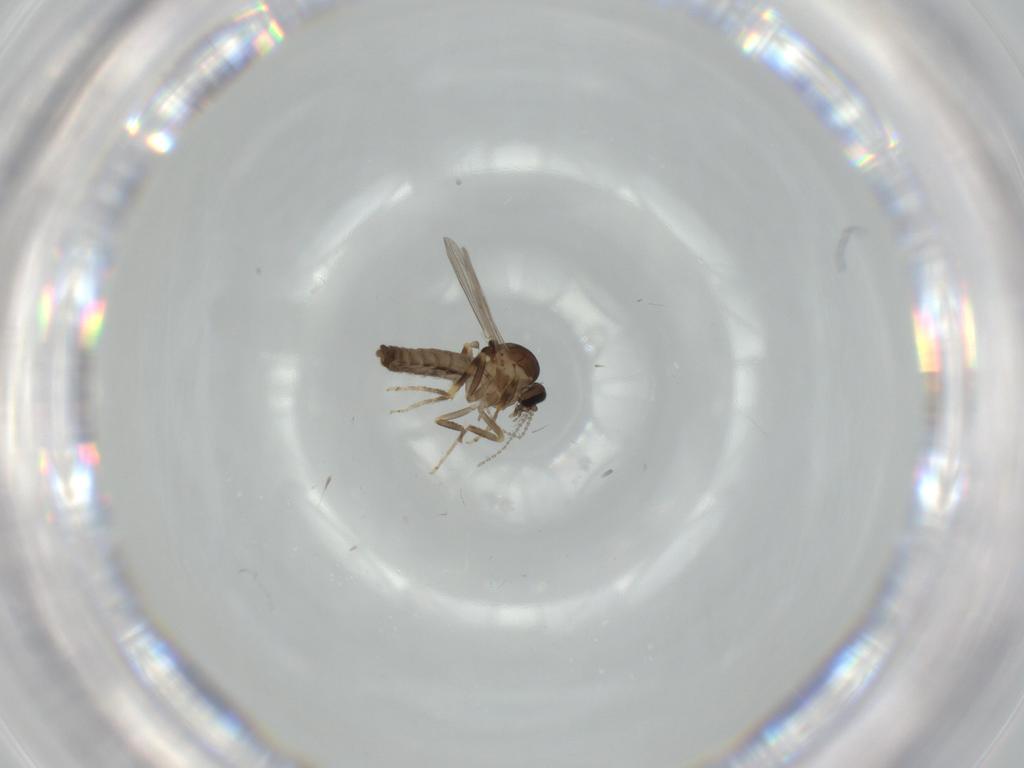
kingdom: Animalia
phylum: Arthropoda
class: Insecta
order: Diptera
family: Ceratopogonidae
